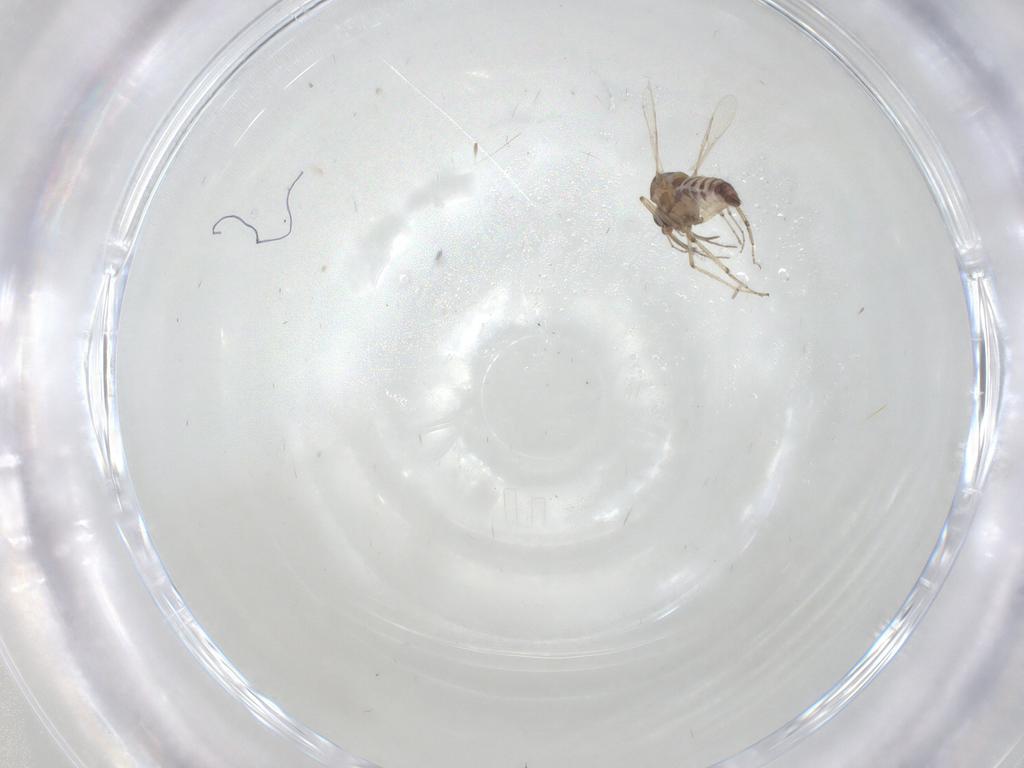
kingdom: Animalia
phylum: Arthropoda
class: Insecta
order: Diptera
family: Ceratopogonidae
